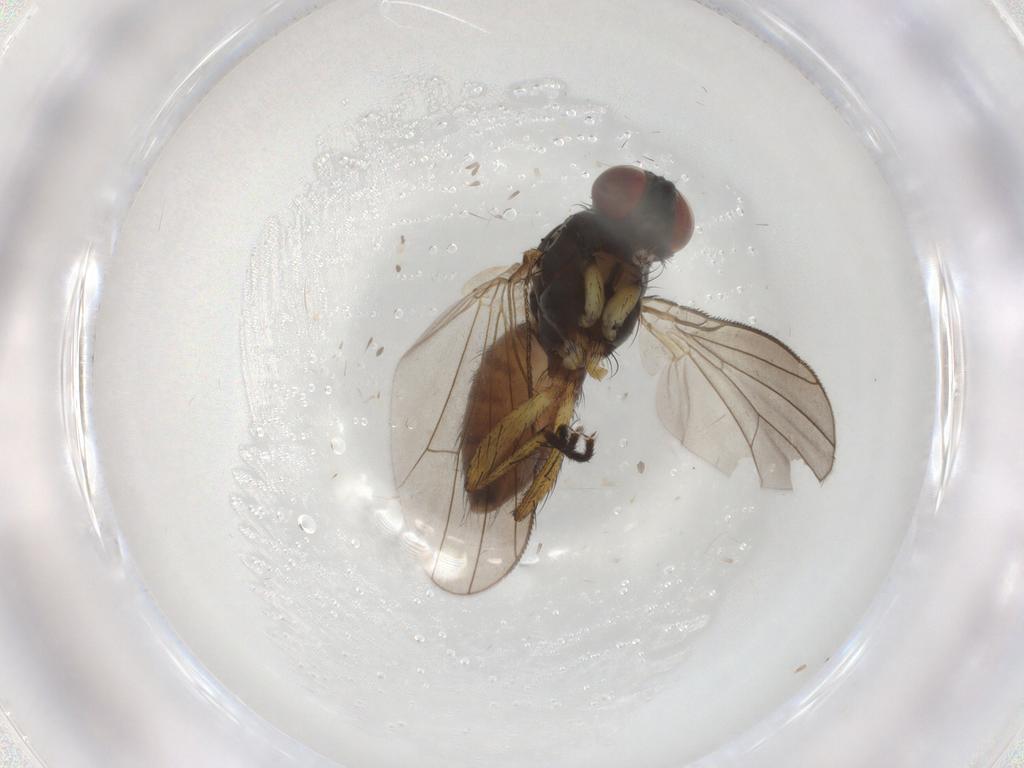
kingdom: Animalia
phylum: Arthropoda
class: Insecta
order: Diptera
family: Muscidae
